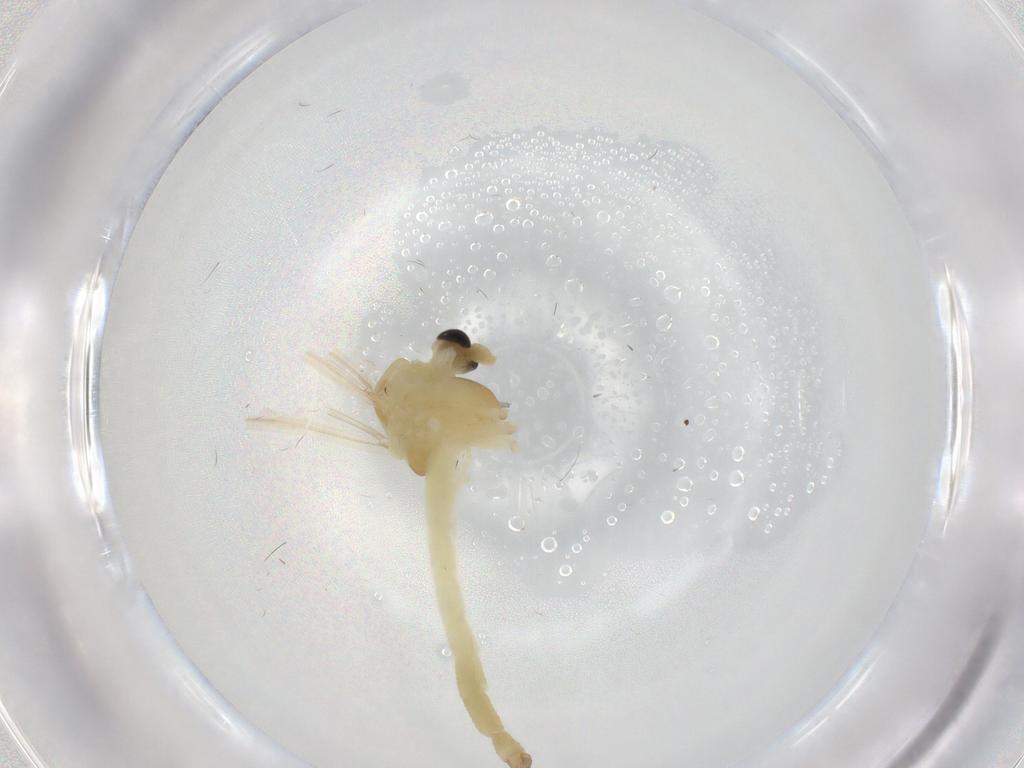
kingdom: Animalia
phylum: Arthropoda
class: Insecta
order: Diptera
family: Chironomidae
